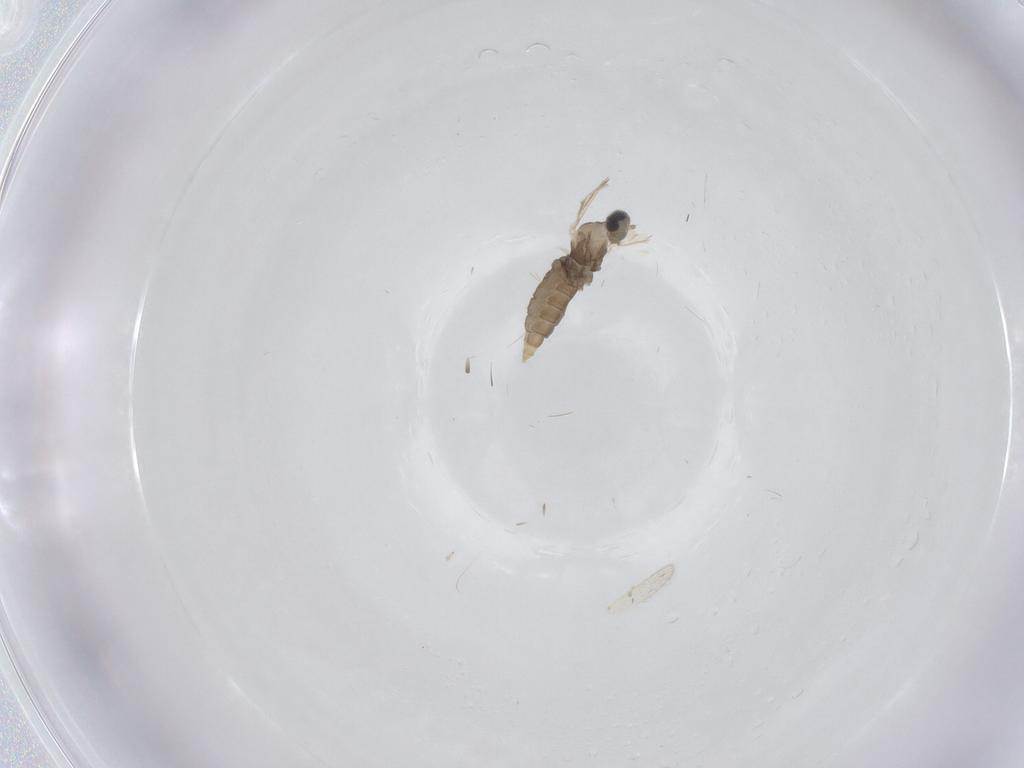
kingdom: Animalia
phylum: Arthropoda
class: Insecta
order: Diptera
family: Cecidomyiidae
